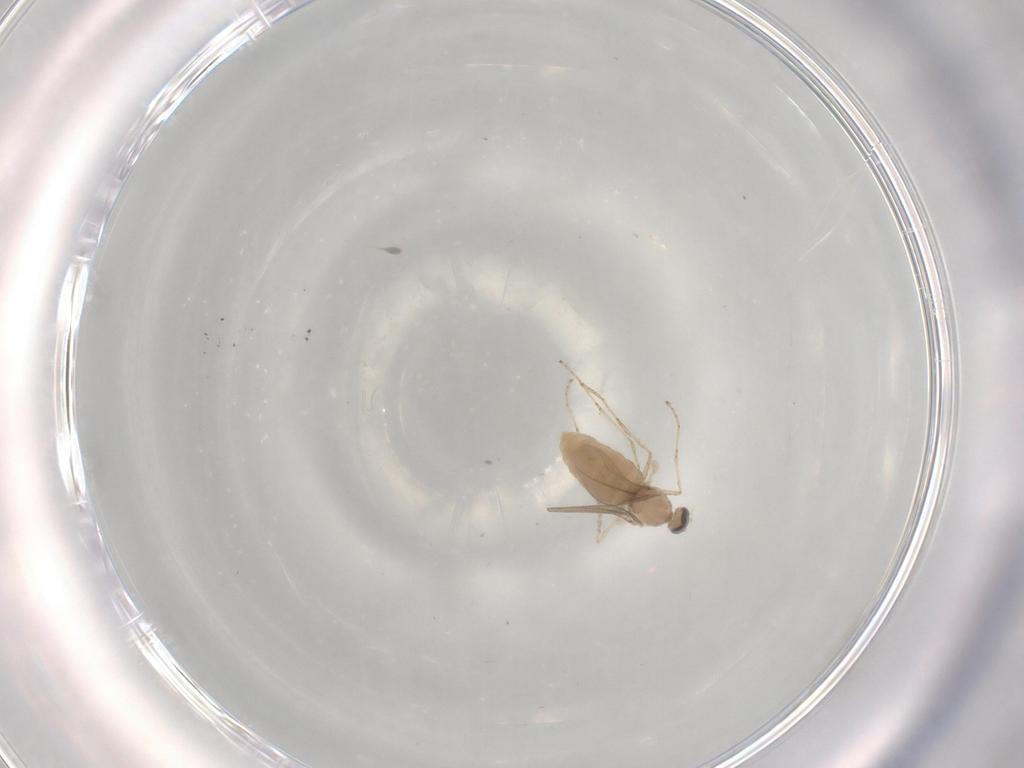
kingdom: Animalia
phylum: Arthropoda
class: Insecta
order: Diptera
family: Cecidomyiidae
